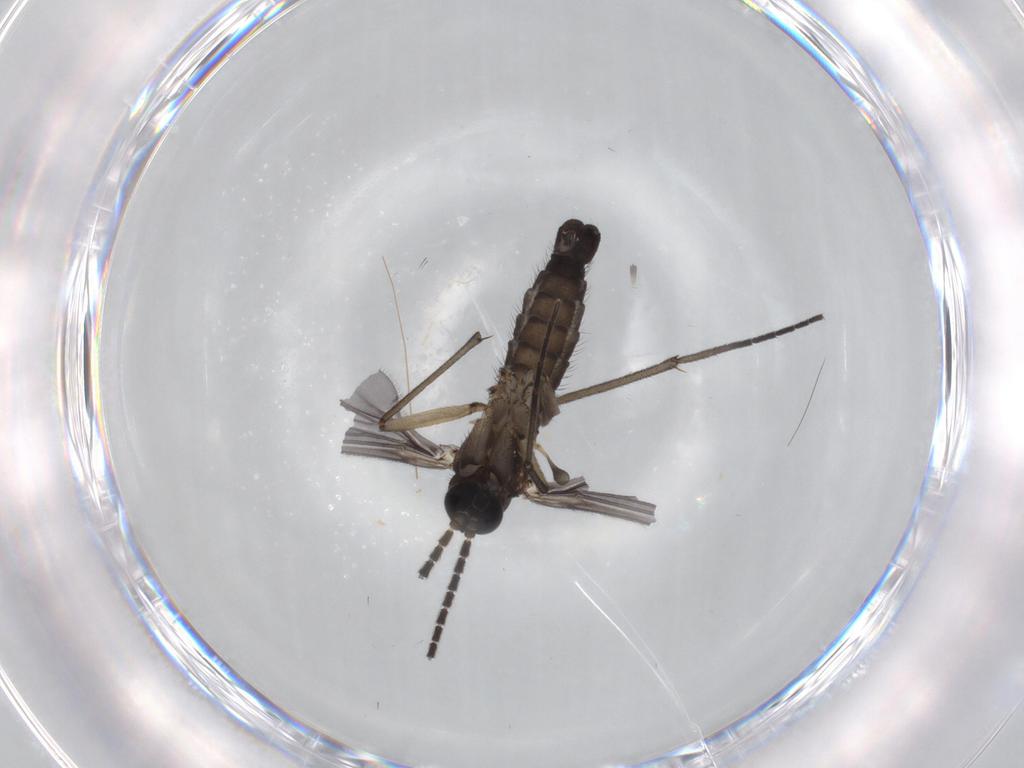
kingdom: Animalia
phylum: Arthropoda
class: Insecta
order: Diptera
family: Sciaridae
